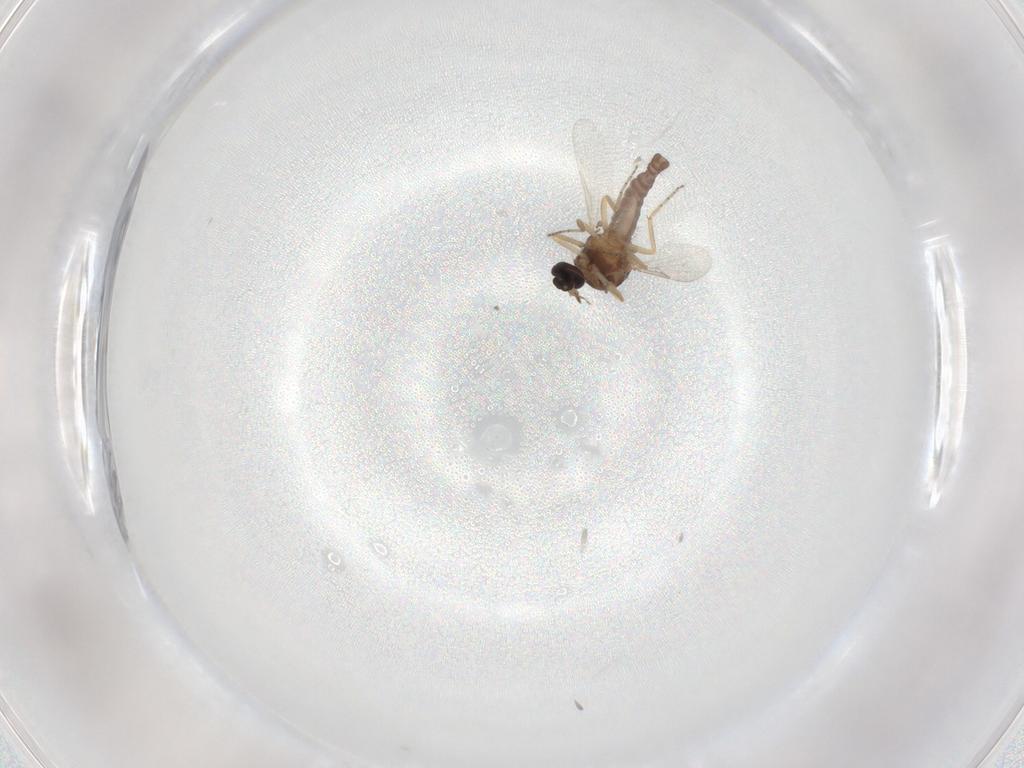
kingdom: Animalia
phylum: Arthropoda
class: Insecta
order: Diptera
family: Ceratopogonidae
